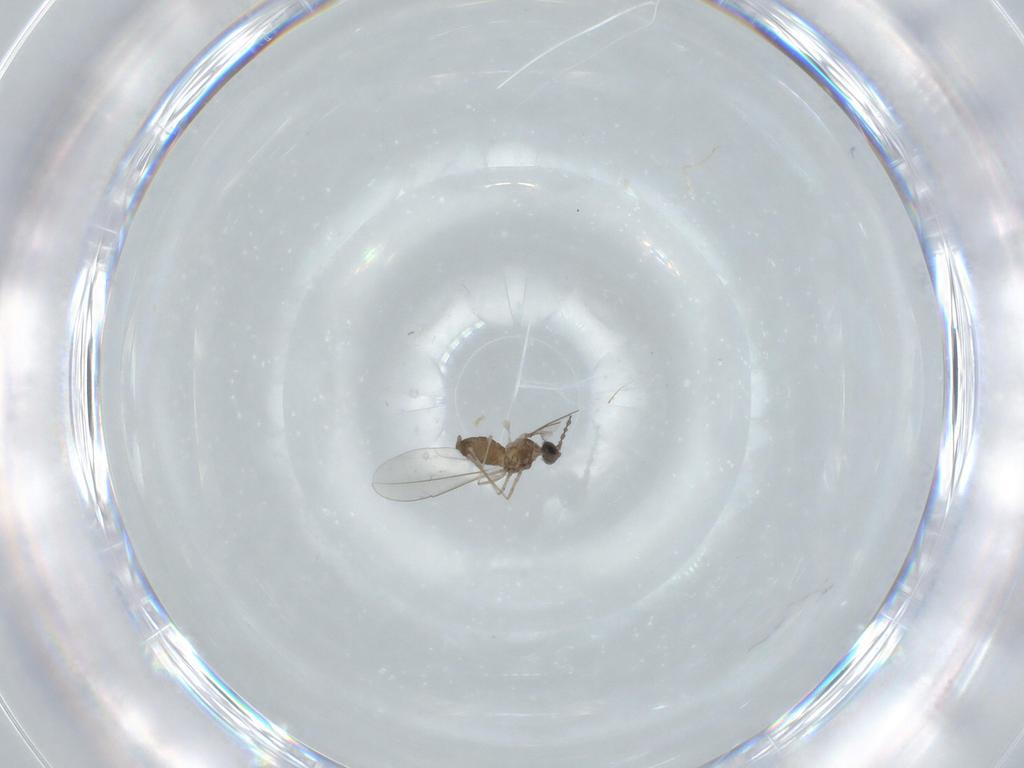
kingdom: Animalia
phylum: Arthropoda
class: Insecta
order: Diptera
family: Cecidomyiidae
